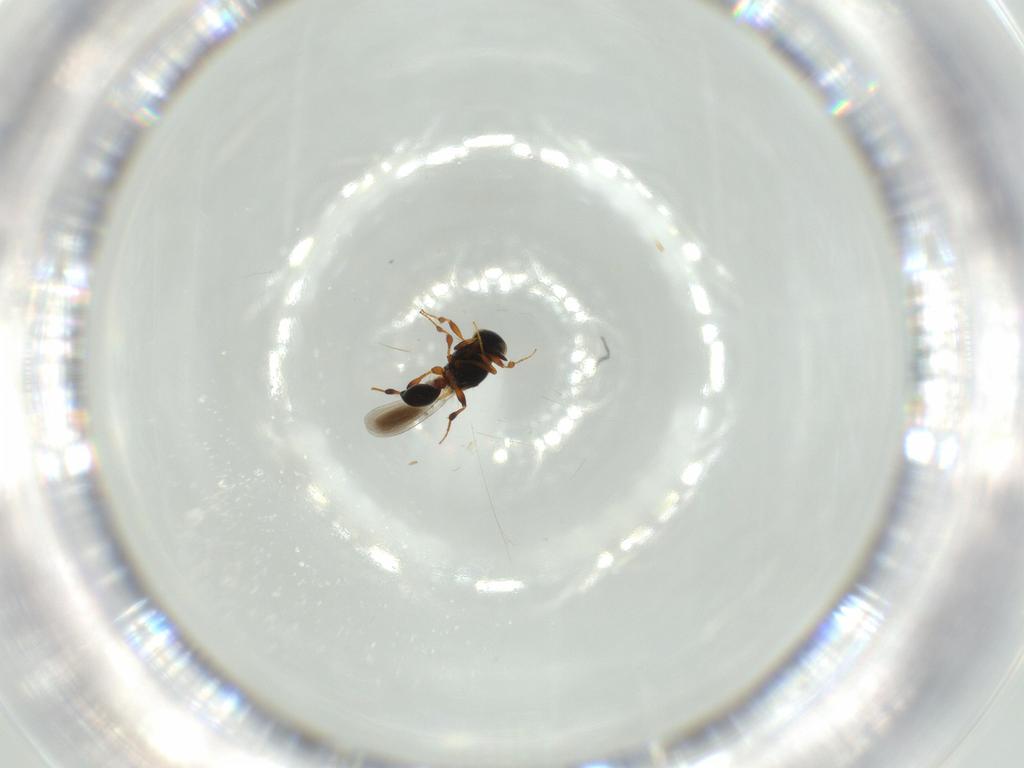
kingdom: Animalia
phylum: Arthropoda
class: Insecta
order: Hymenoptera
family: Platygastridae
